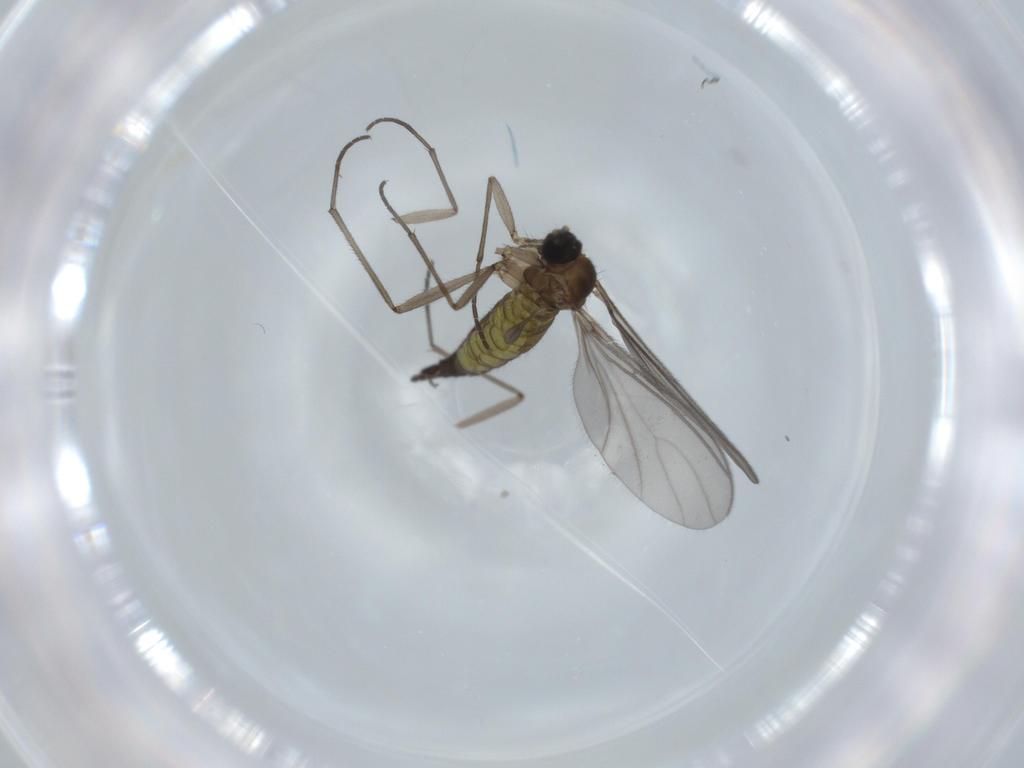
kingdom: Animalia
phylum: Arthropoda
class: Insecta
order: Diptera
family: Sciaridae
